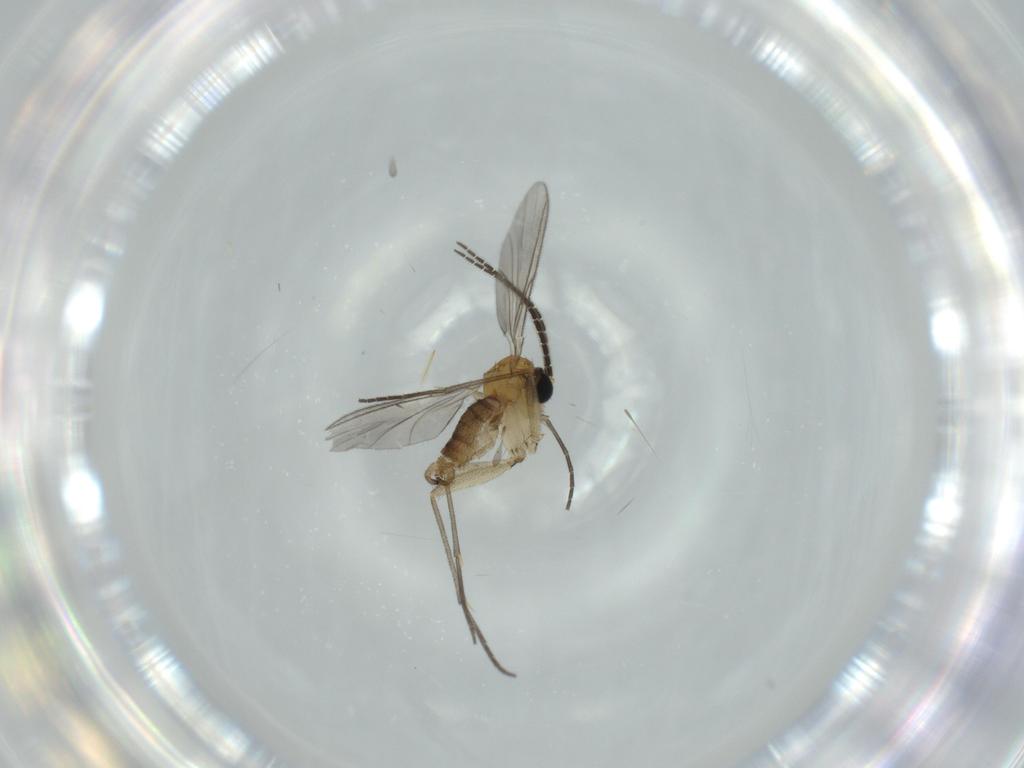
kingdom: Animalia
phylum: Arthropoda
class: Insecta
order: Diptera
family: Sciaridae
